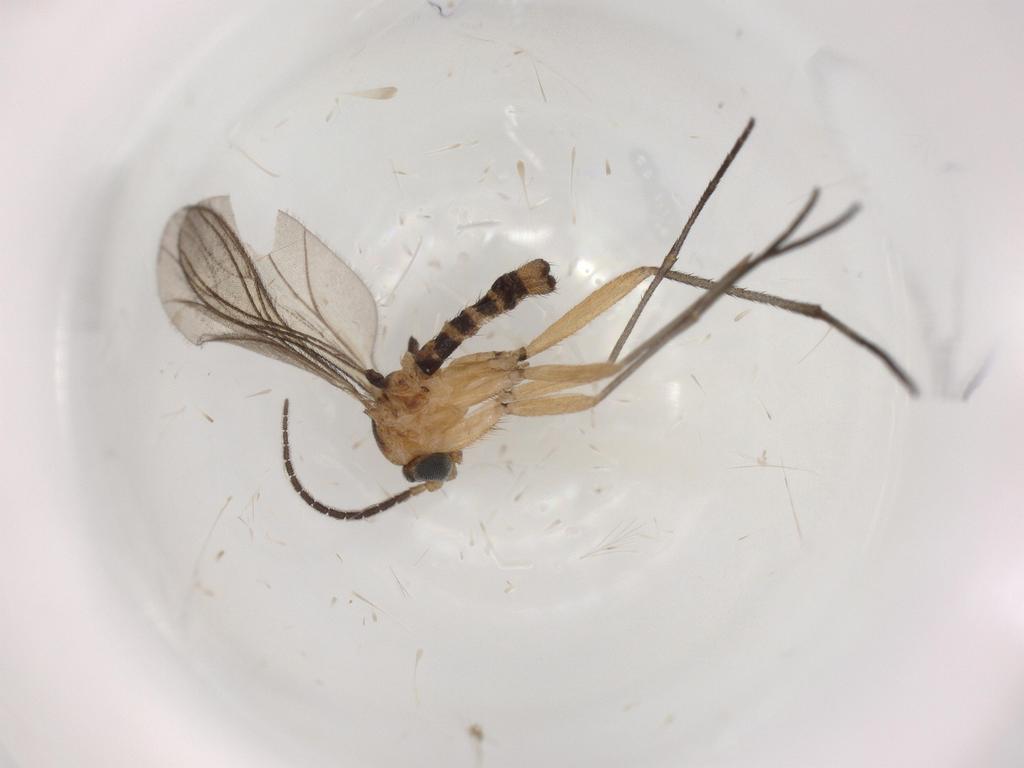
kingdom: Animalia
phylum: Arthropoda
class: Insecta
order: Diptera
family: Sciaridae
